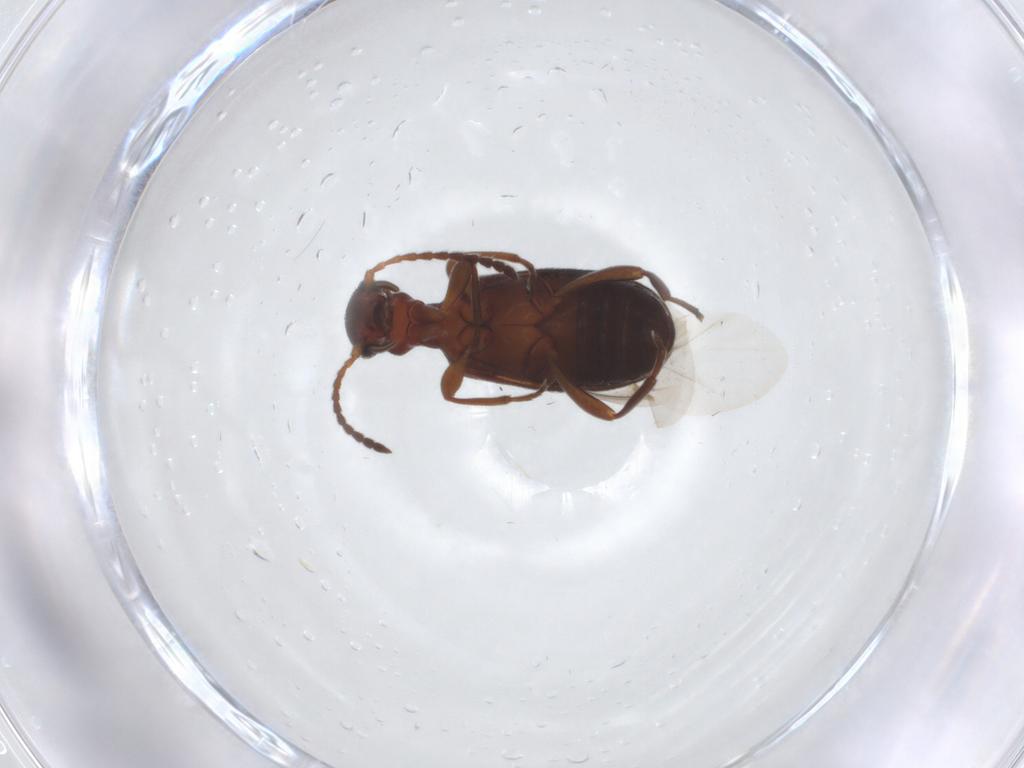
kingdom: Animalia
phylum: Arthropoda
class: Insecta
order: Coleoptera
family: Anthicidae
